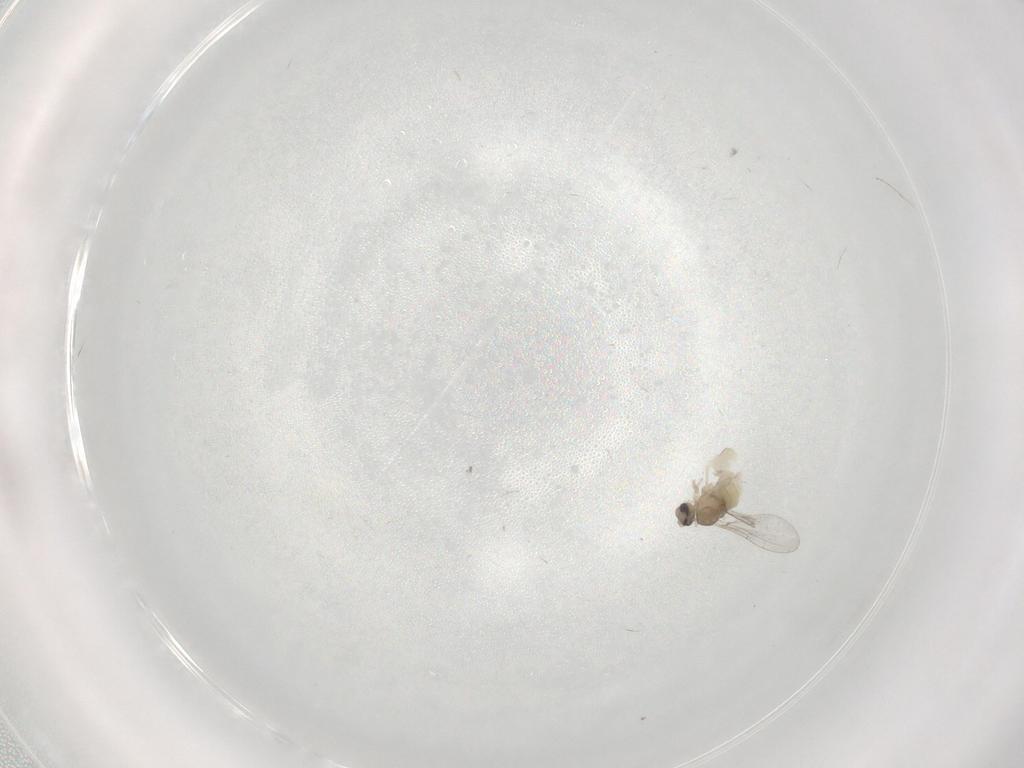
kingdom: Animalia
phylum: Arthropoda
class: Insecta
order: Diptera
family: Cecidomyiidae
